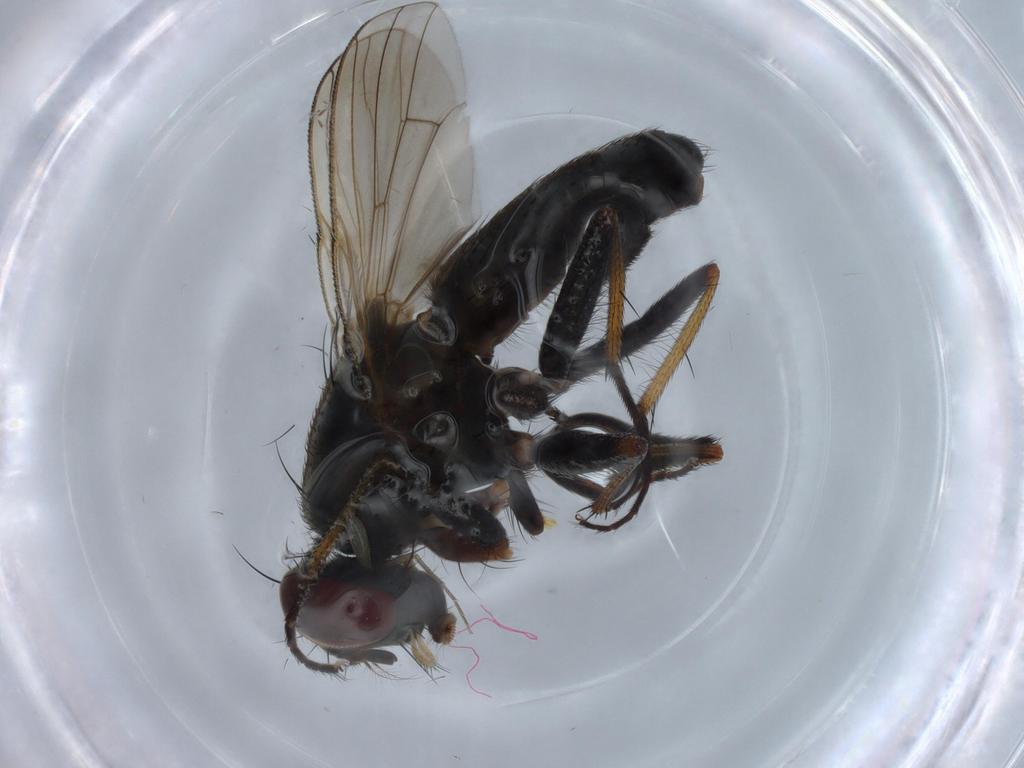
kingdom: Animalia
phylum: Arthropoda
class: Insecta
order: Diptera
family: Muscidae
